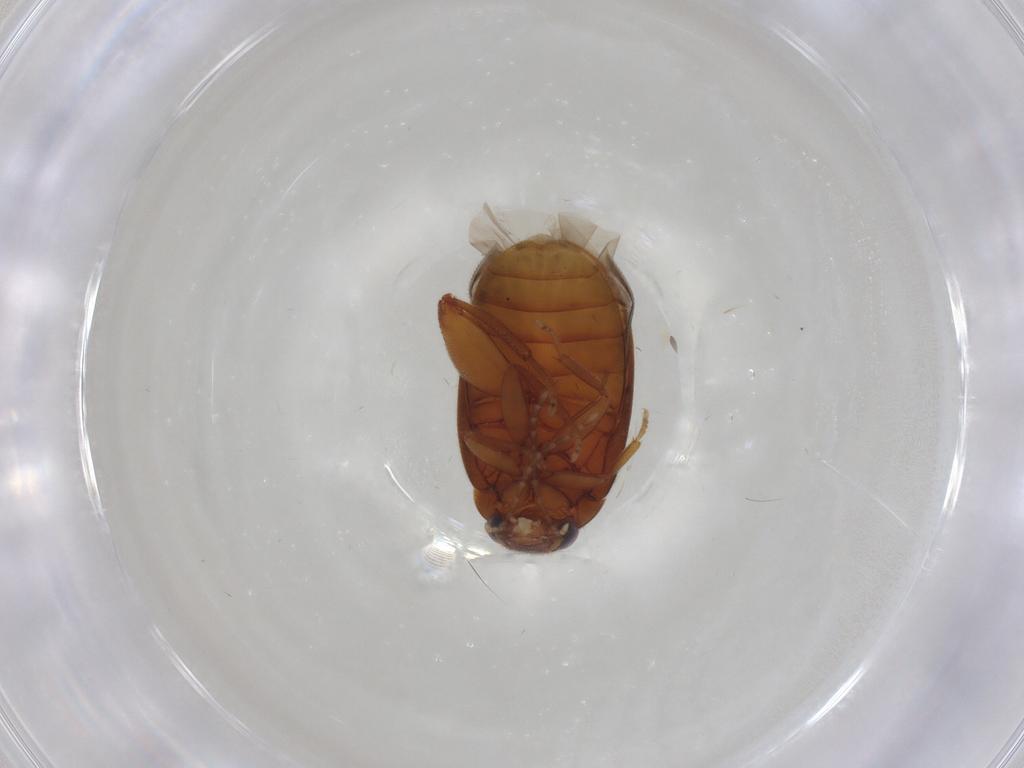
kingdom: Animalia
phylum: Arthropoda
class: Insecta
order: Coleoptera
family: Scirtidae
